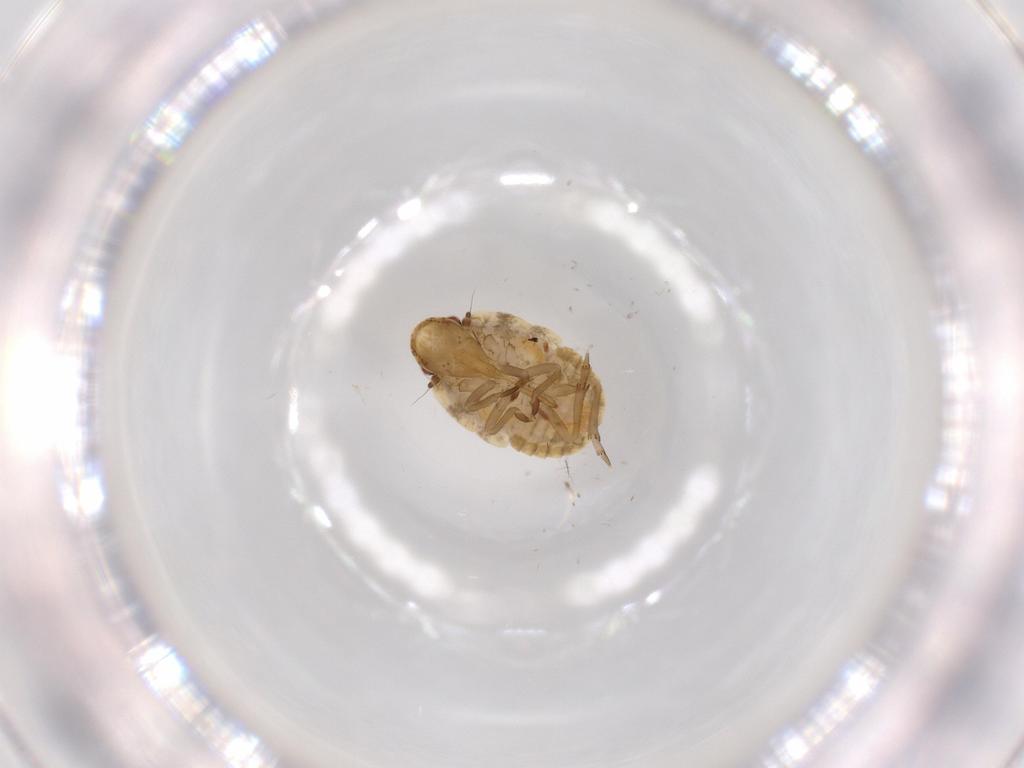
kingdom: Animalia
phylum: Arthropoda
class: Insecta
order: Hemiptera
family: Flatidae
